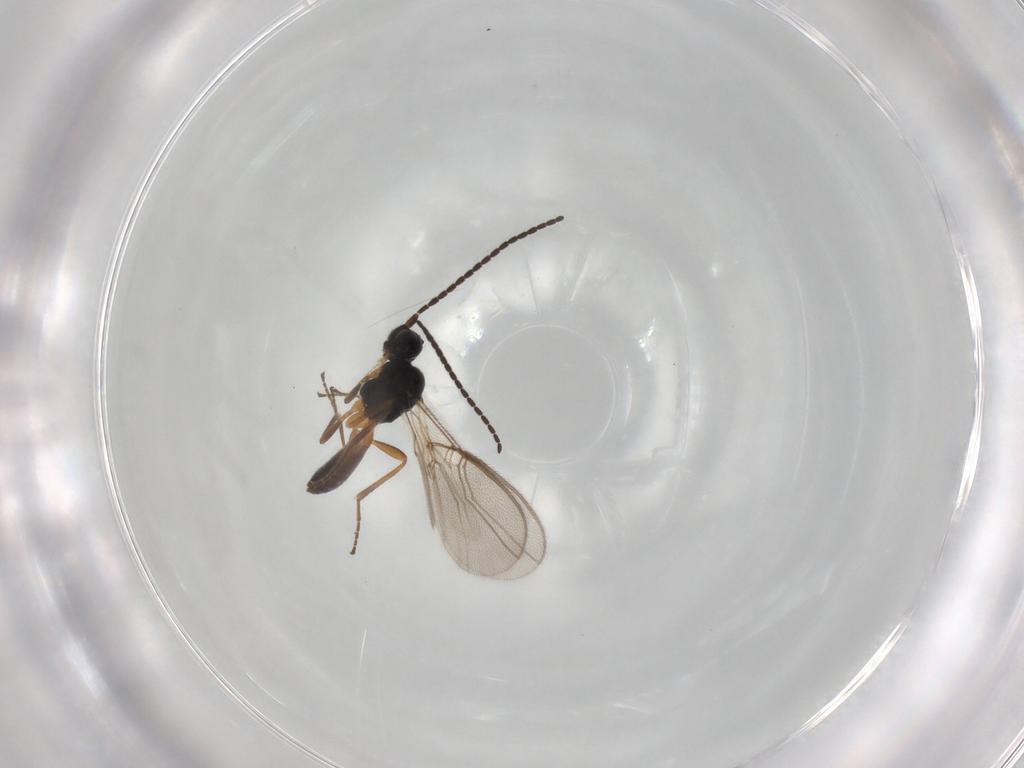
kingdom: Animalia
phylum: Arthropoda
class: Insecta
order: Hymenoptera
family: Braconidae
